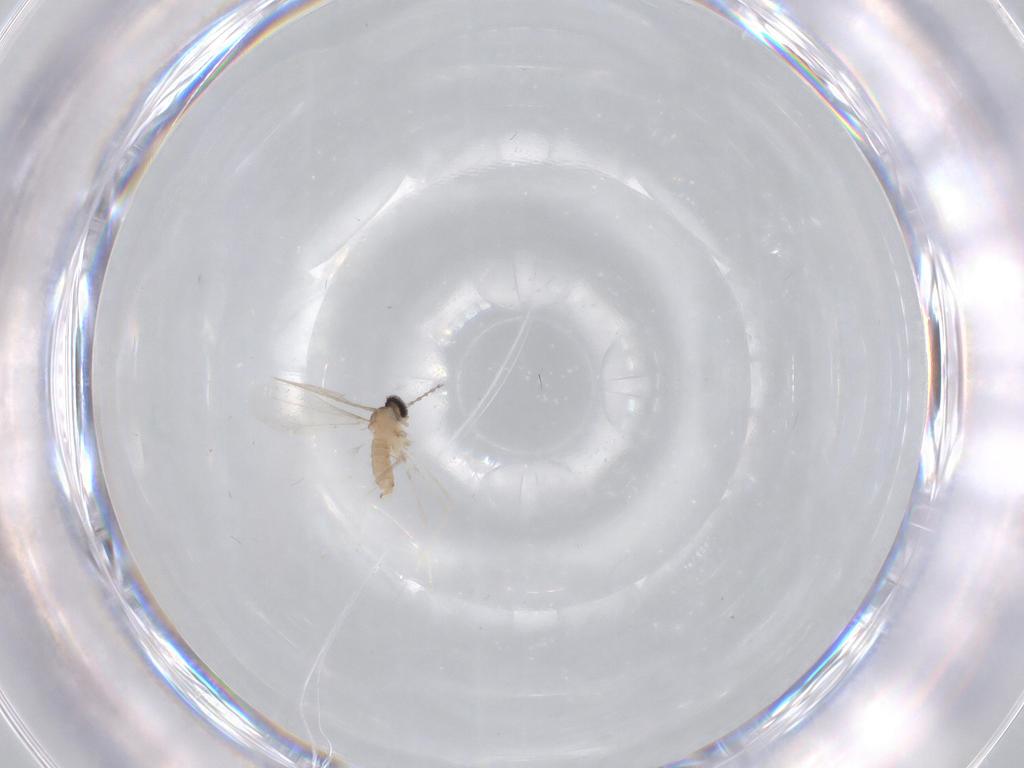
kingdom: Animalia
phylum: Arthropoda
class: Insecta
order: Diptera
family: Cecidomyiidae
